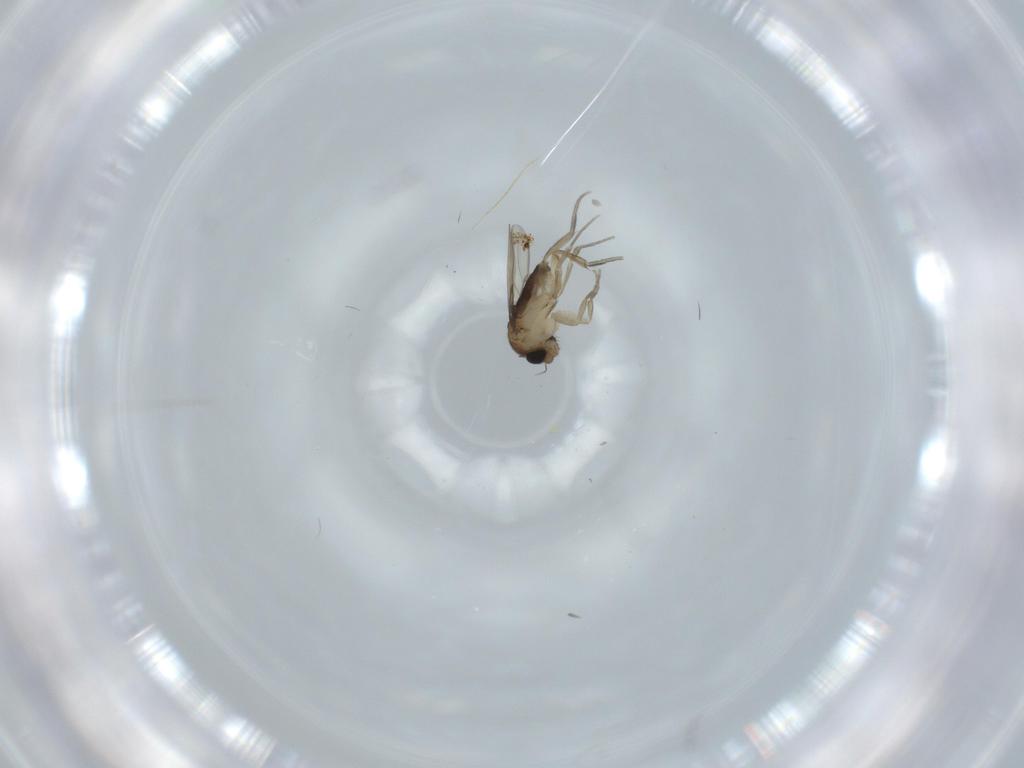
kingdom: Animalia
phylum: Arthropoda
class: Insecta
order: Diptera
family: Phoridae
